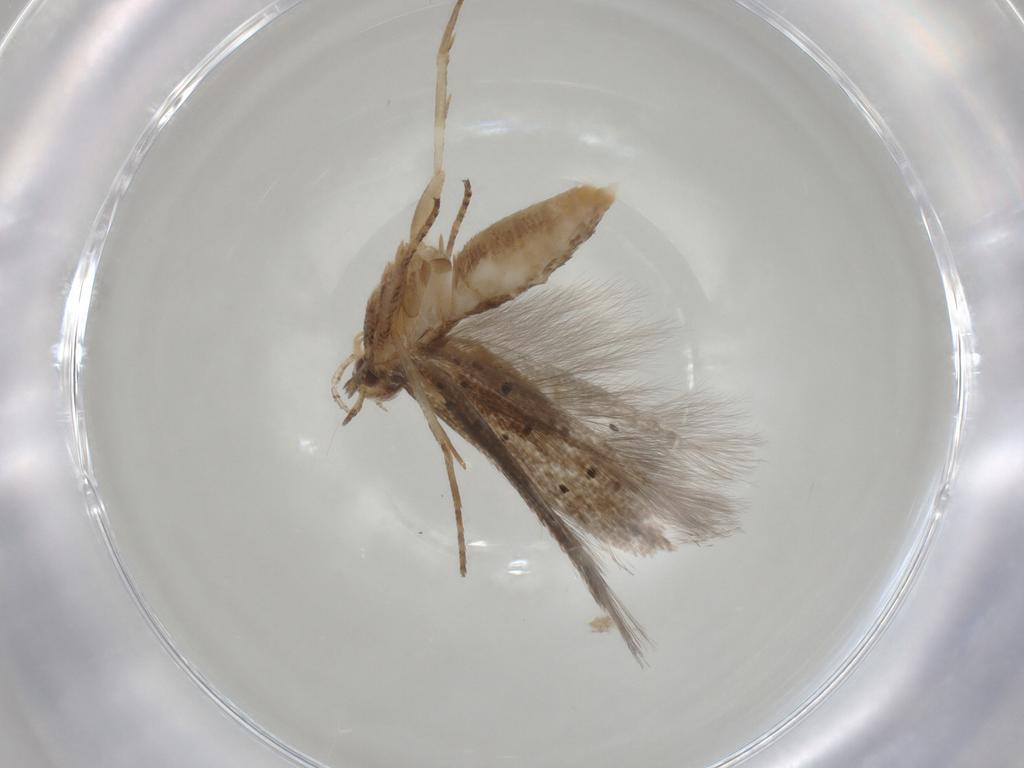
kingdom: Animalia
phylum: Arthropoda
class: Insecta
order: Lepidoptera
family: Cosmopterigidae
